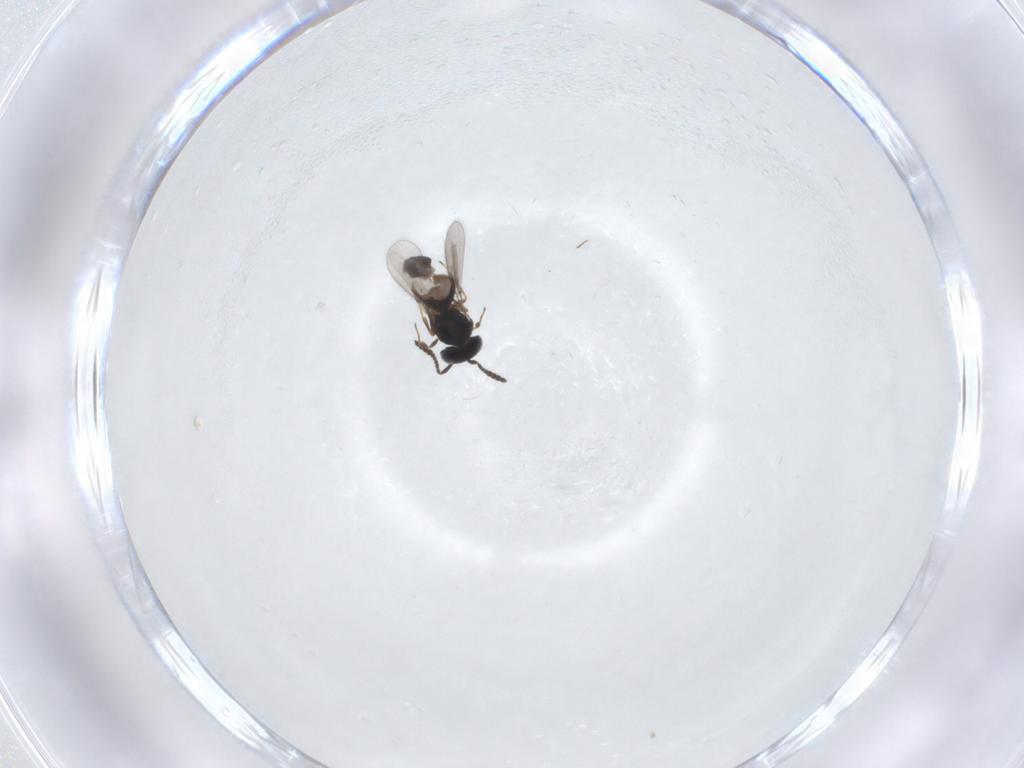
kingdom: Animalia
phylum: Arthropoda
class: Insecta
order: Hymenoptera
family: Scelionidae
